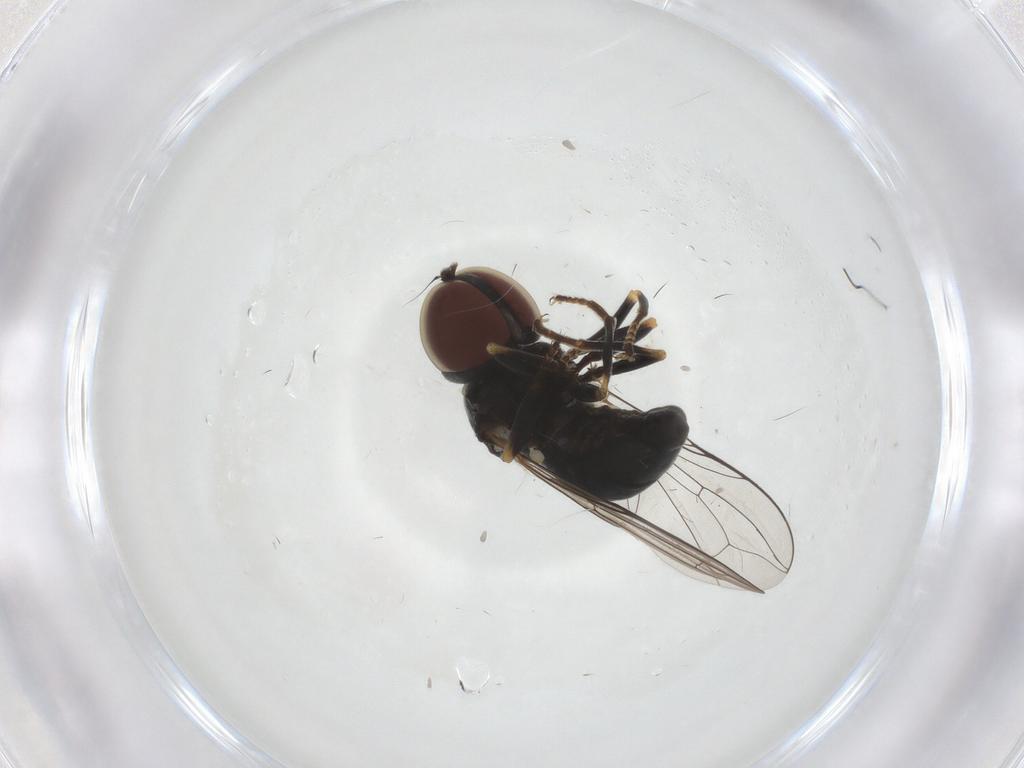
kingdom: Animalia
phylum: Arthropoda
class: Insecta
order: Diptera
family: Pipunculidae
